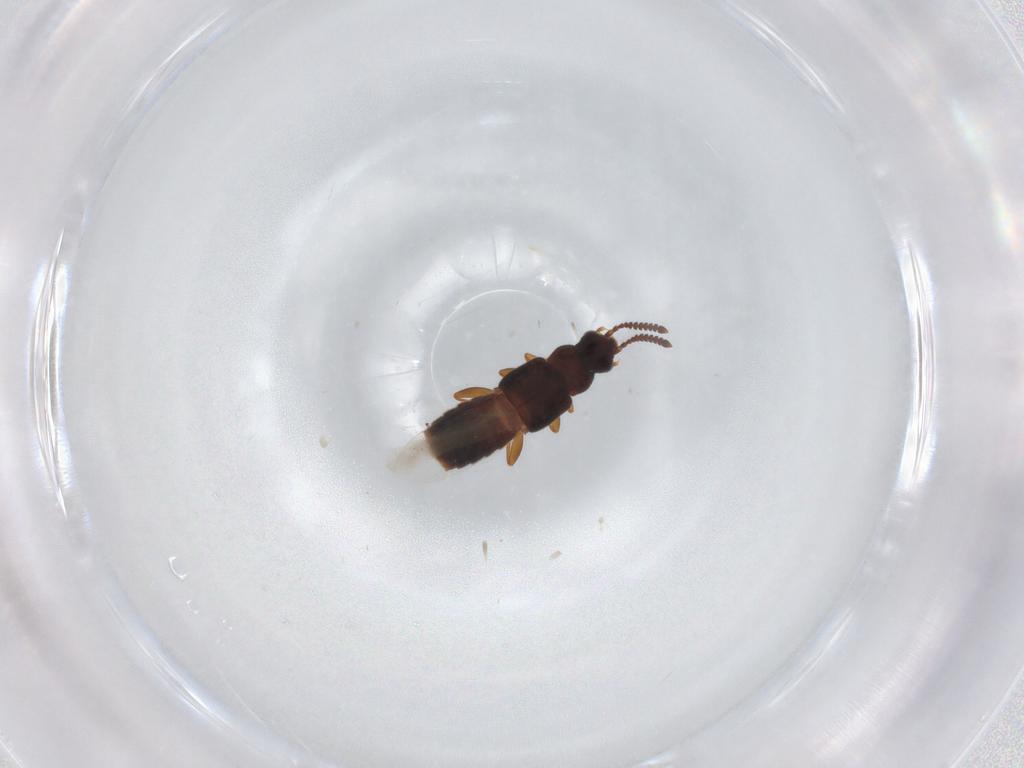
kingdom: Animalia
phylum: Arthropoda
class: Insecta
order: Coleoptera
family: Staphylinidae
